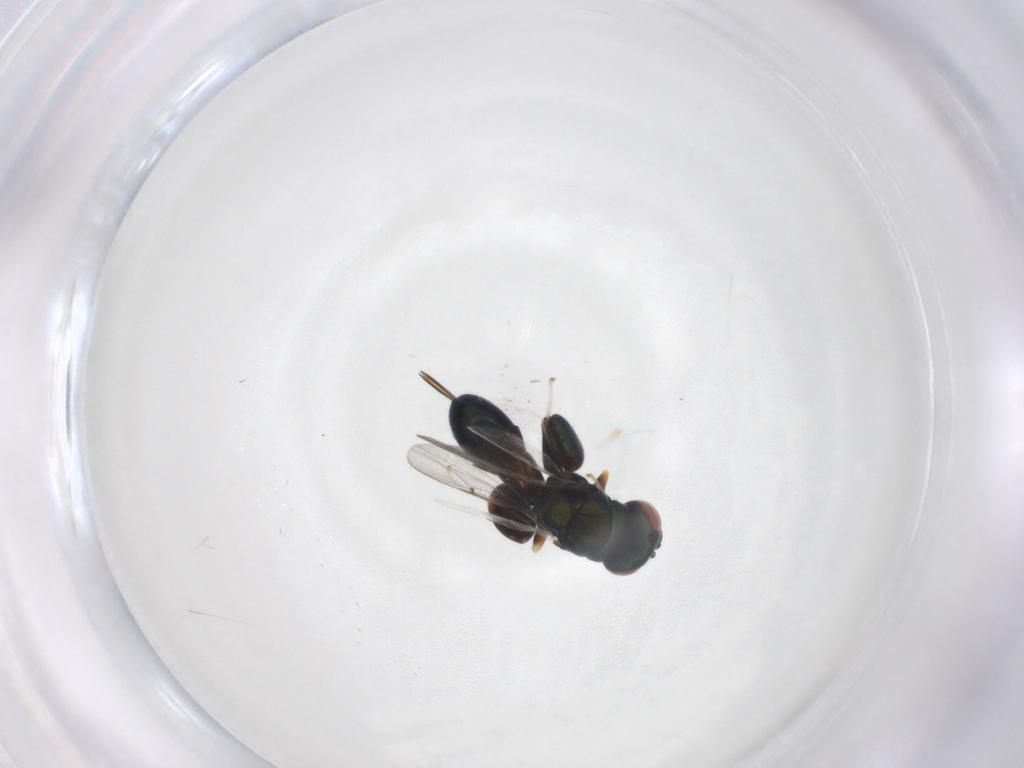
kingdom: Animalia
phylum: Arthropoda
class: Insecta
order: Hymenoptera
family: Torymidae
